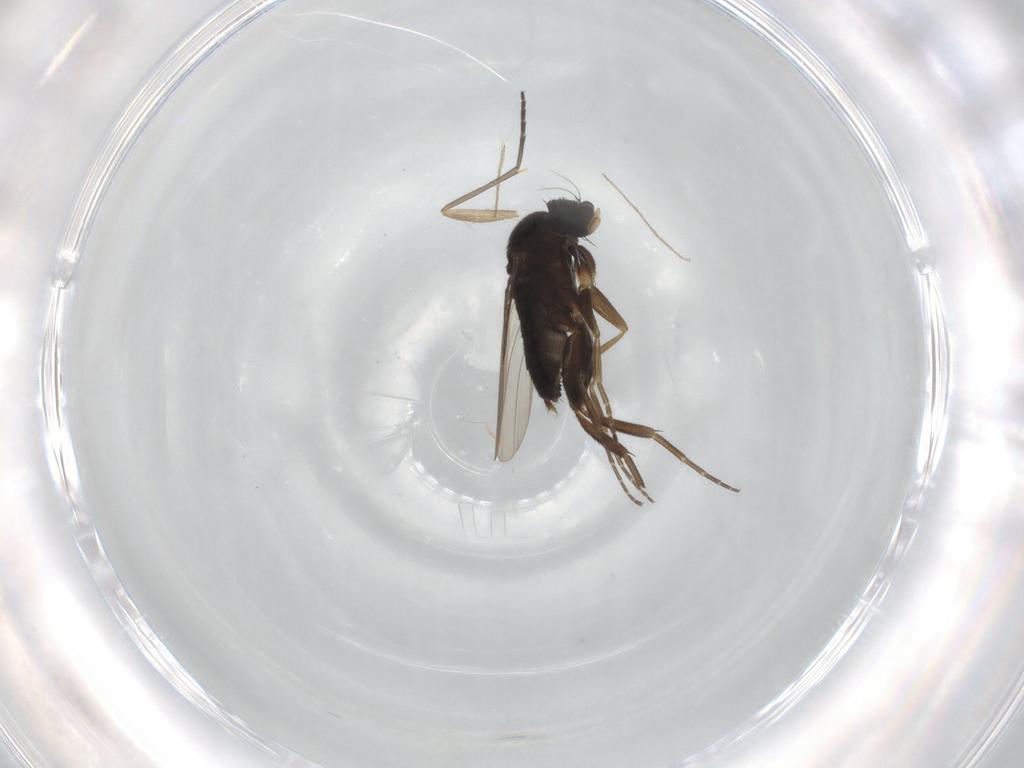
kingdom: Animalia
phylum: Arthropoda
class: Insecta
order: Diptera
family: Phoridae
